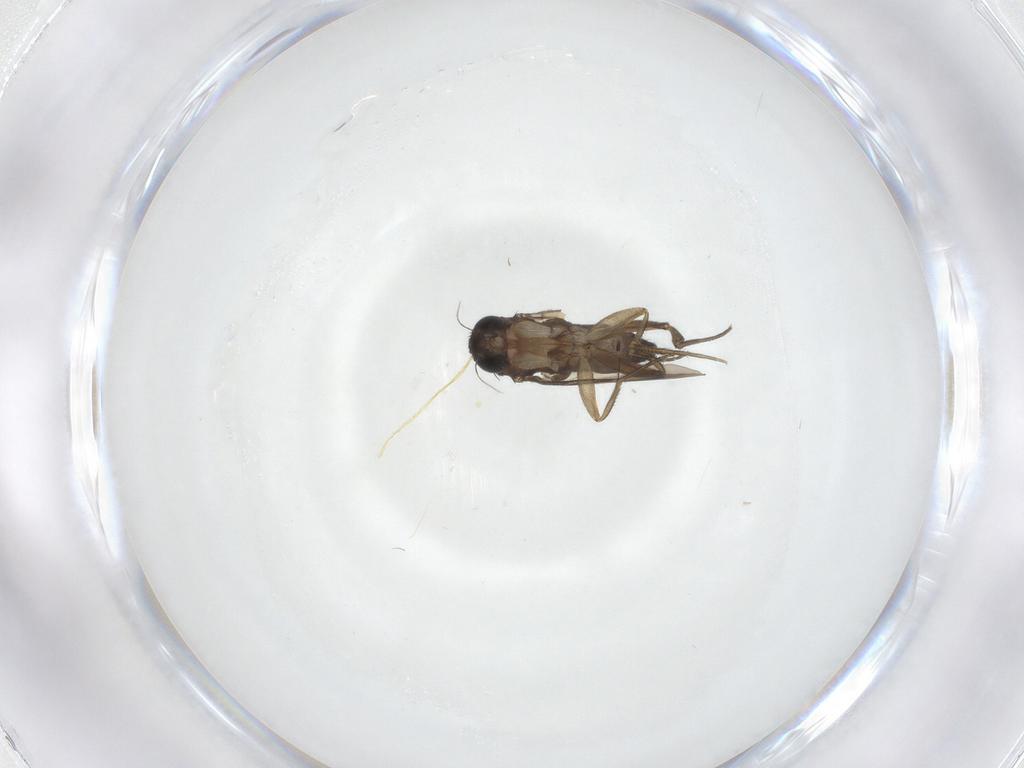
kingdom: Animalia
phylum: Arthropoda
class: Insecta
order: Diptera
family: Phoridae
